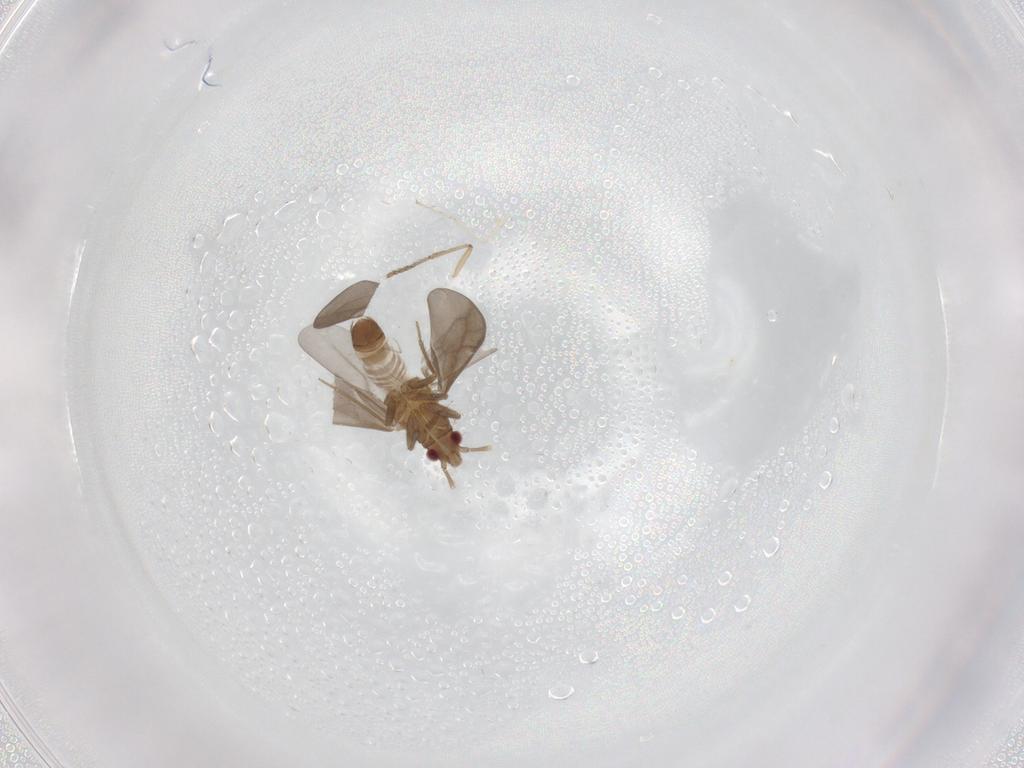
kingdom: Animalia
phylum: Arthropoda
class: Insecta
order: Hemiptera
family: Ceratocombidae
